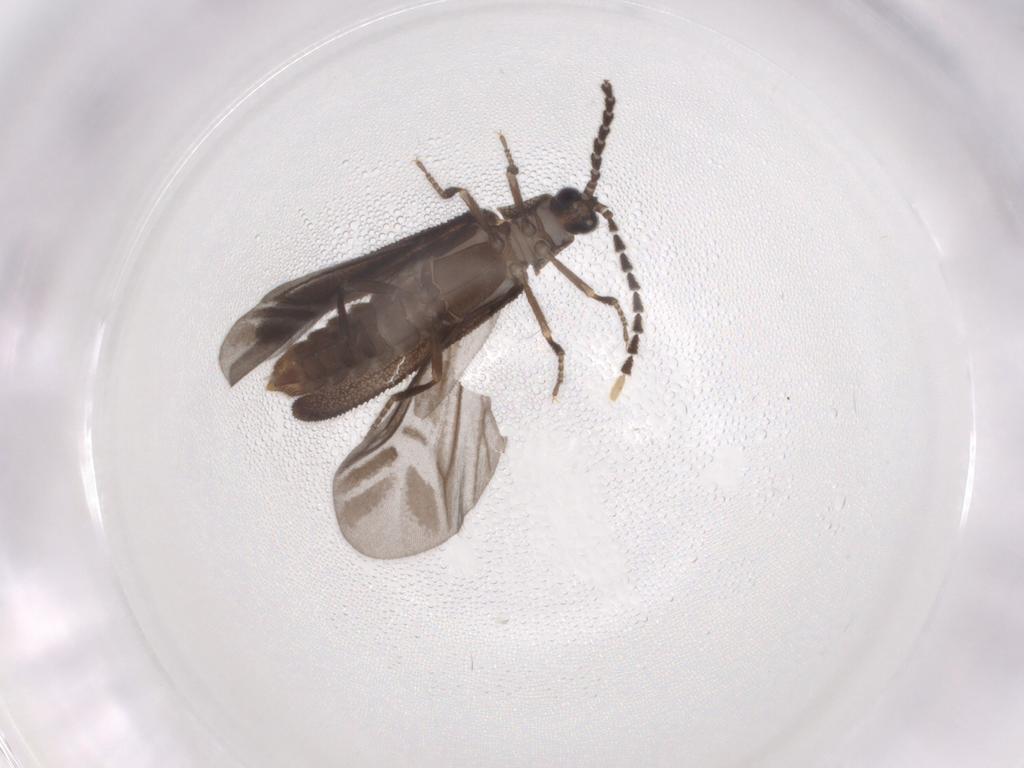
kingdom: Animalia
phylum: Arthropoda
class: Insecta
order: Coleoptera
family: Lycidae
